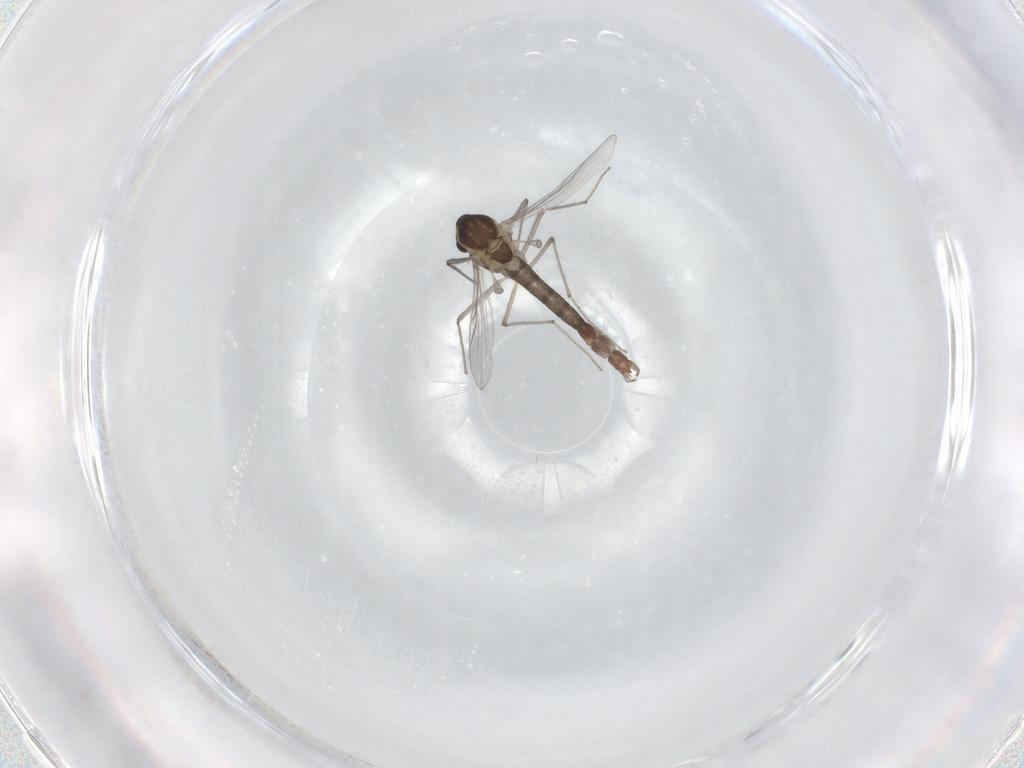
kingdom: Animalia
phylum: Arthropoda
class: Insecta
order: Diptera
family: Chironomidae
